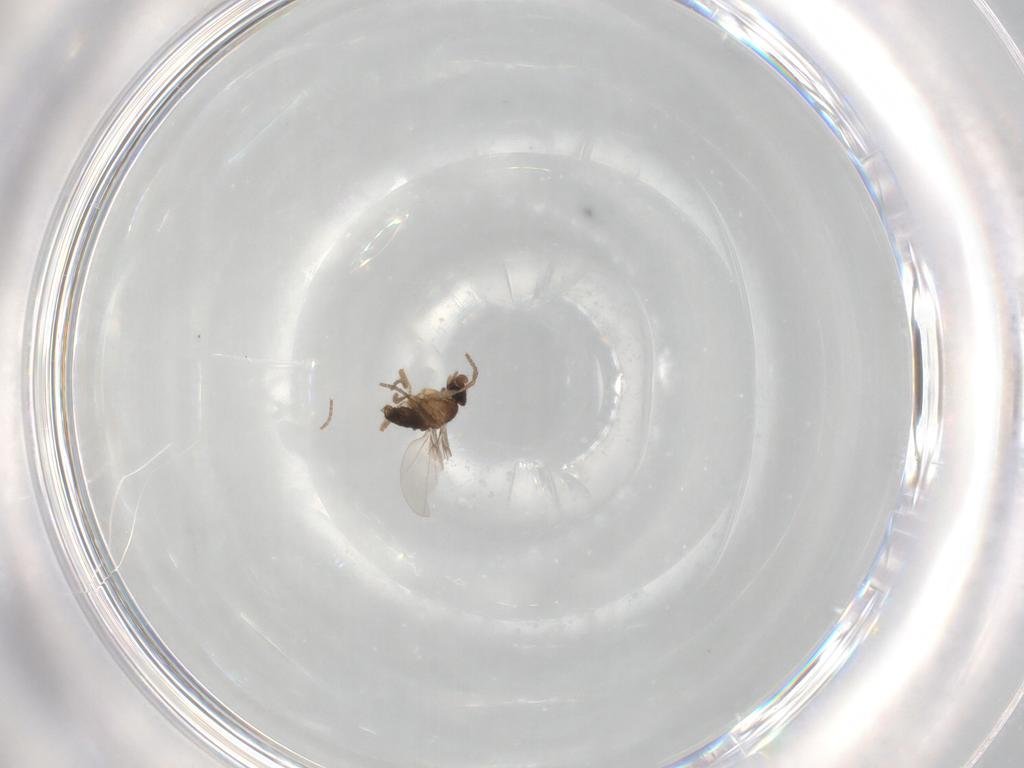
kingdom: Animalia
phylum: Arthropoda
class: Insecta
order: Diptera
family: Phoridae
